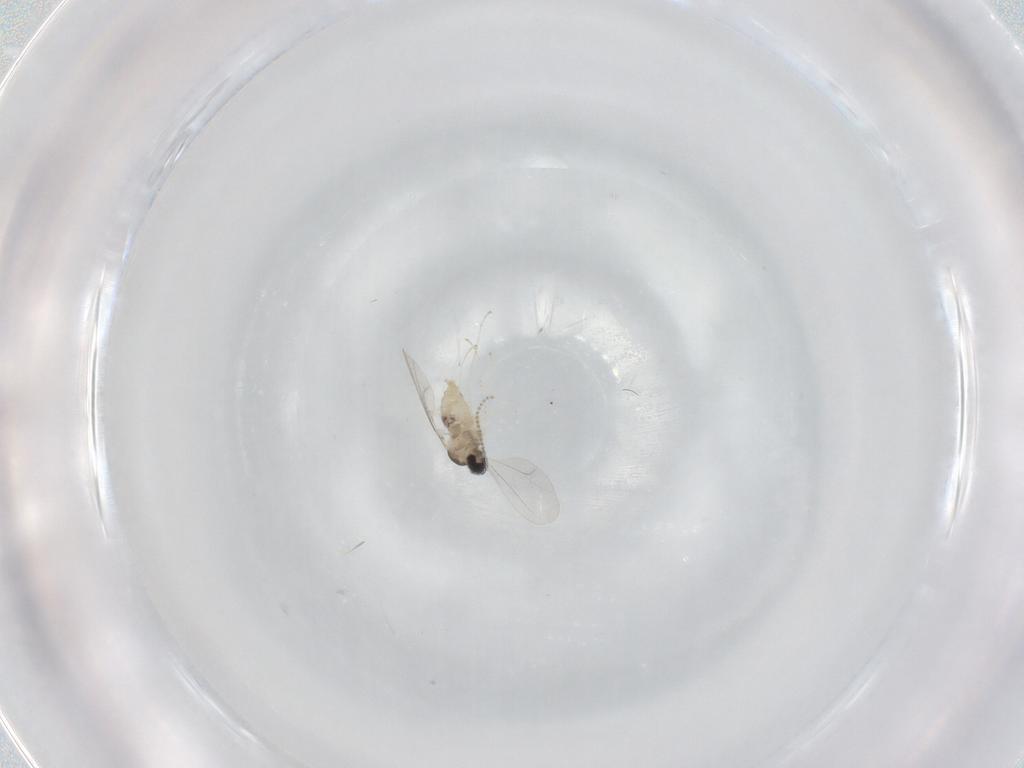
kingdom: Animalia
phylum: Arthropoda
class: Insecta
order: Diptera
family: Cecidomyiidae
